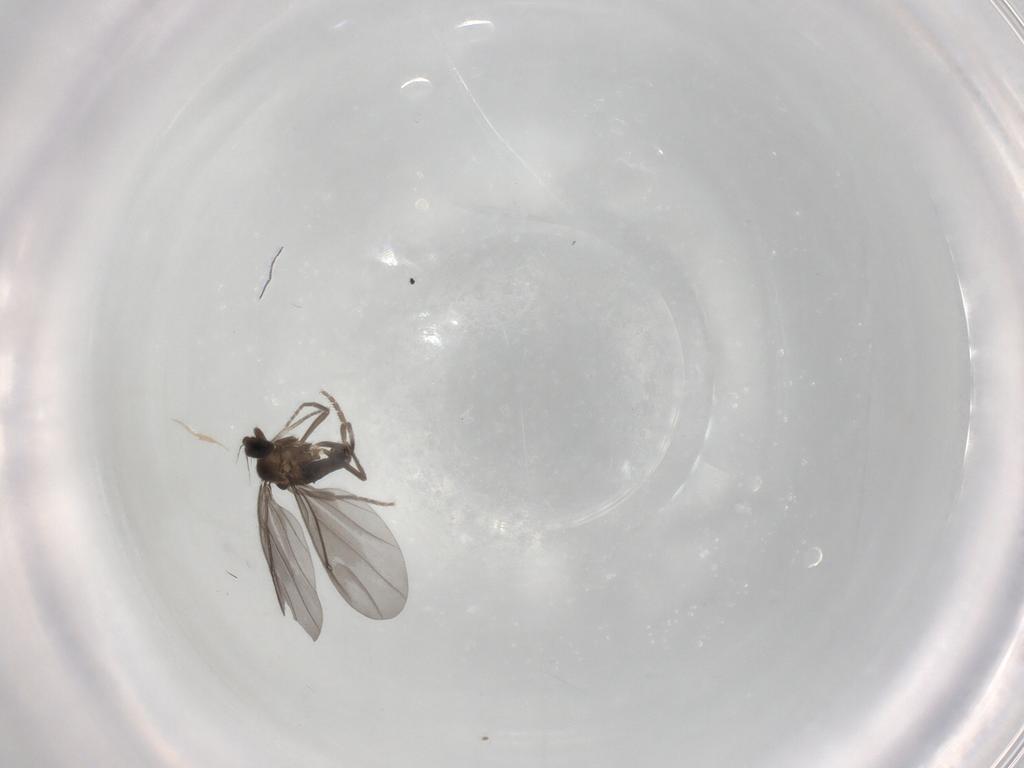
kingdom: Animalia
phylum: Arthropoda
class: Insecta
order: Diptera
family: Phoridae
